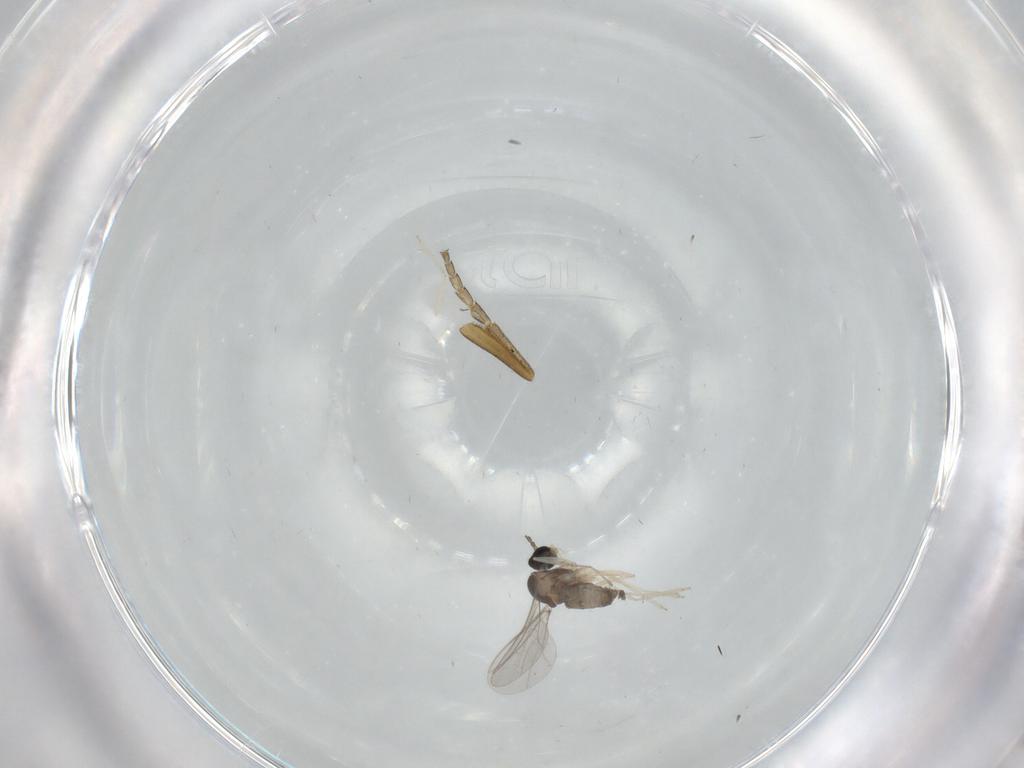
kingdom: Animalia
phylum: Arthropoda
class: Insecta
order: Diptera
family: Cecidomyiidae
